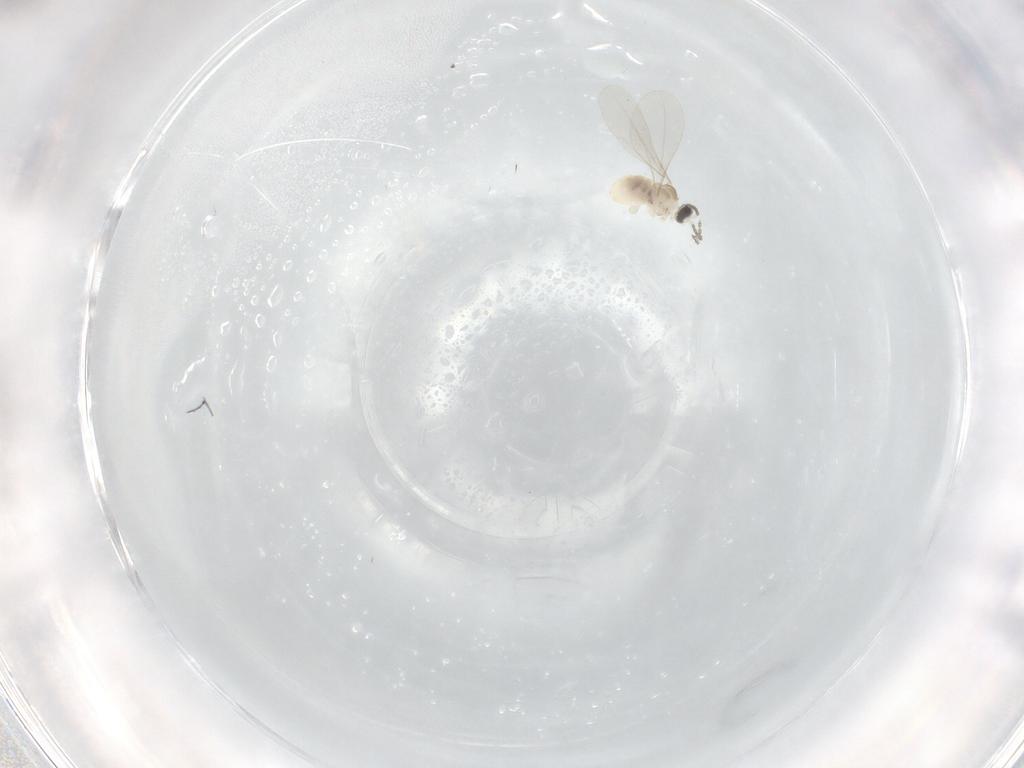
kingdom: Animalia
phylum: Arthropoda
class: Insecta
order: Diptera
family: Cecidomyiidae
